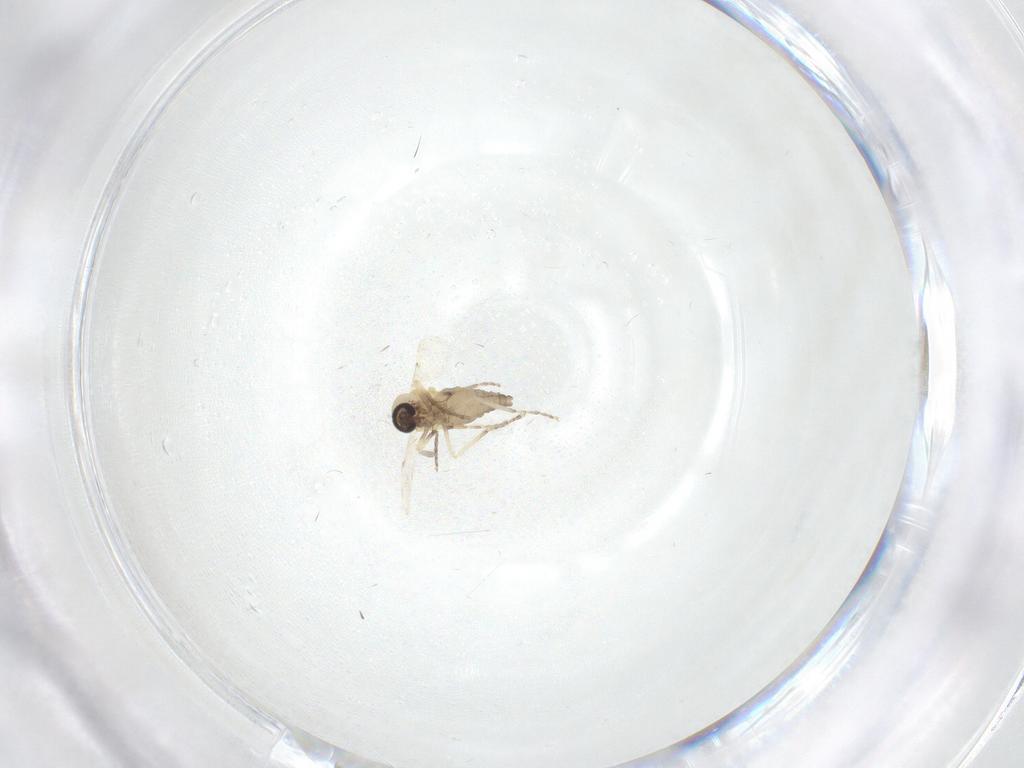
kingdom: Animalia
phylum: Arthropoda
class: Insecta
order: Diptera
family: Ceratopogonidae
